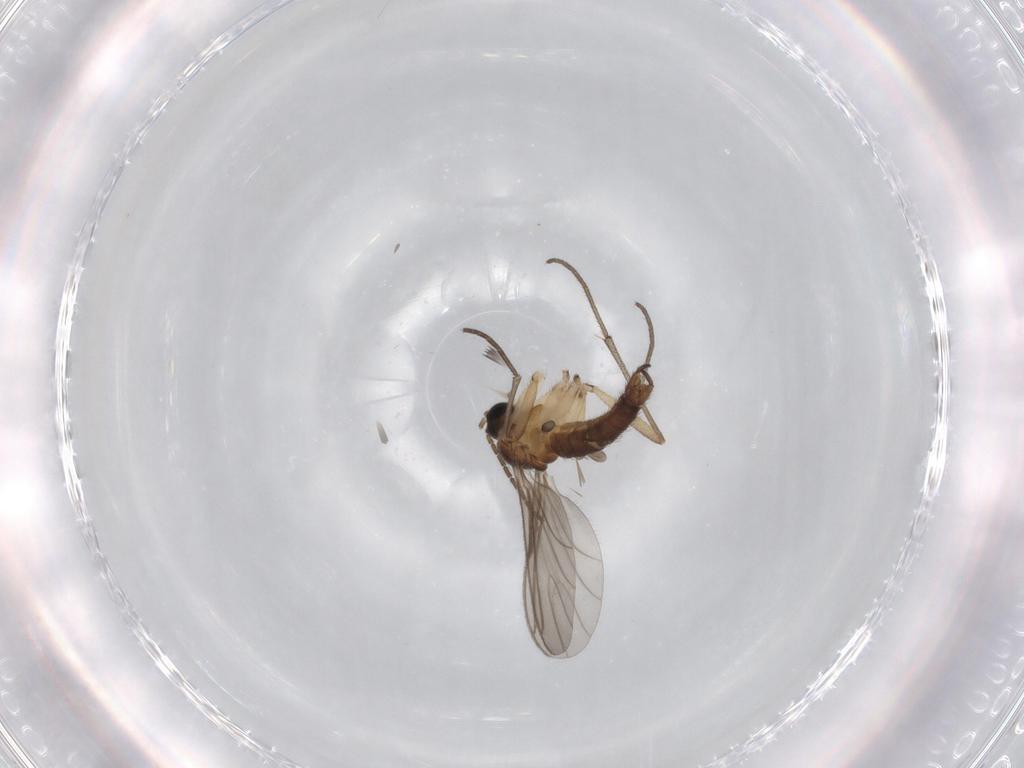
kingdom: Animalia
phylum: Arthropoda
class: Insecta
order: Diptera
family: Sciaridae
